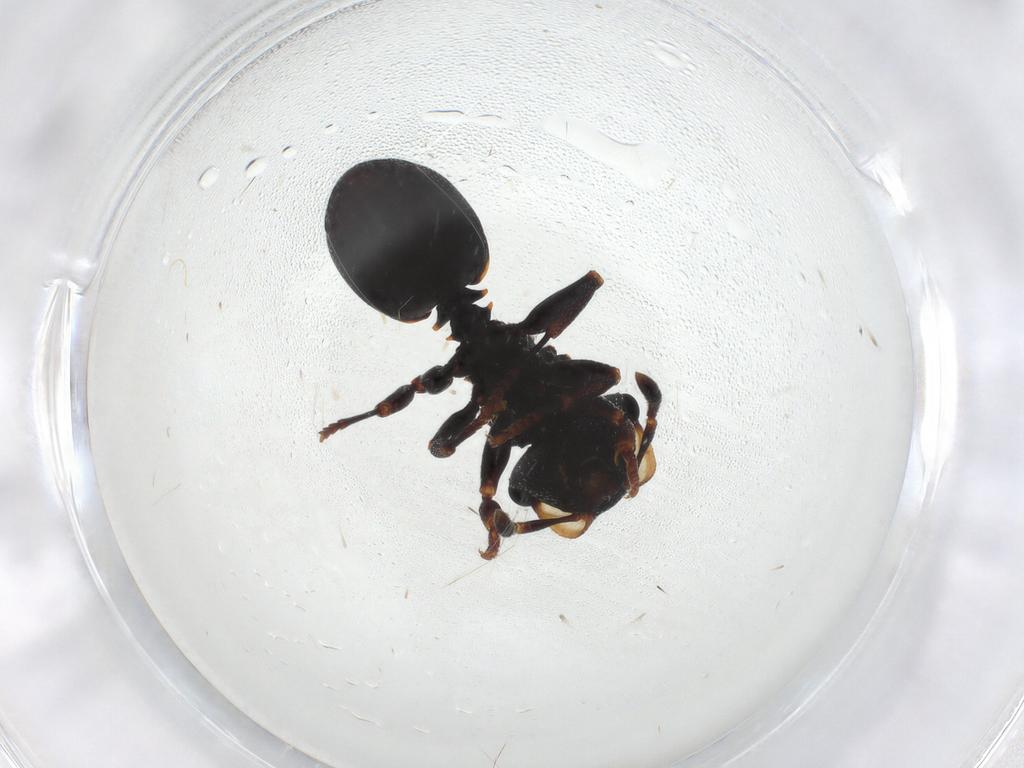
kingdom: Animalia
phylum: Arthropoda
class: Insecta
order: Hymenoptera
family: Formicidae
